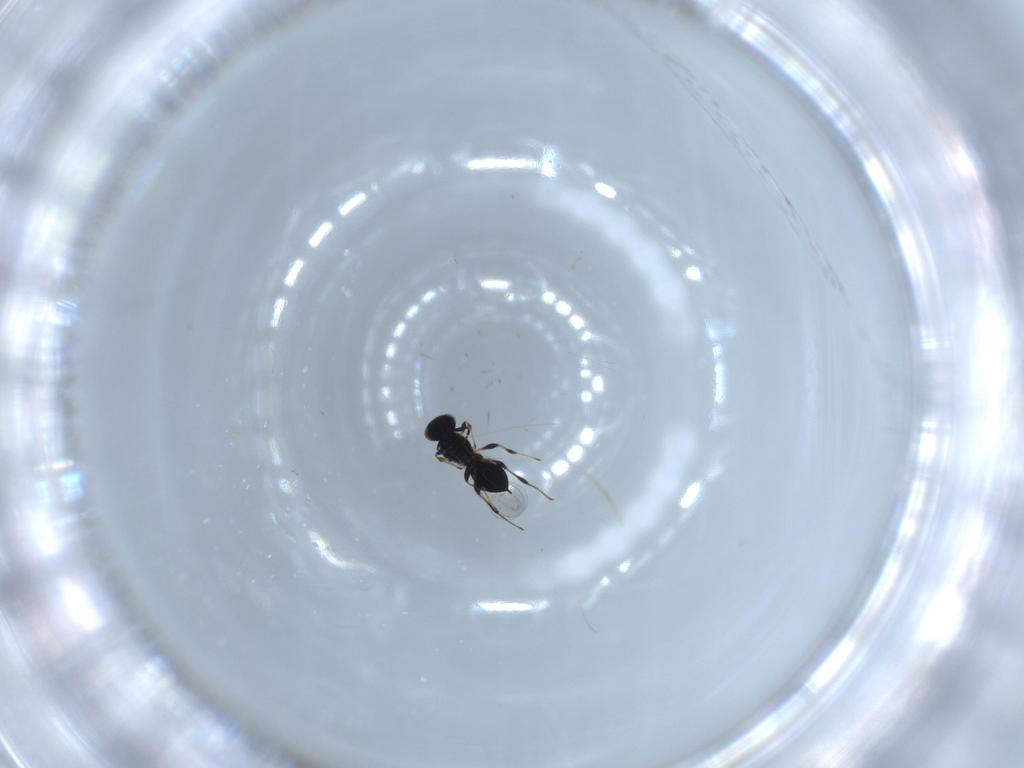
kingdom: Animalia
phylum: Arthropoda
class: Insecta
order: Hymenoptera
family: Platygastridae
